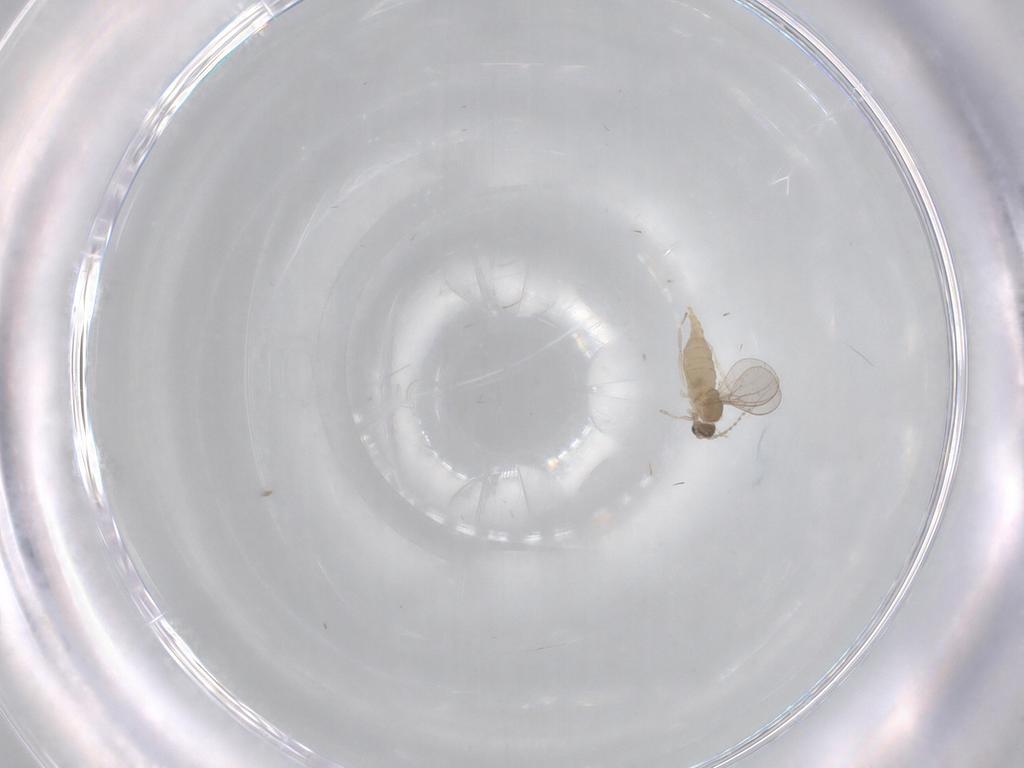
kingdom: Animalia
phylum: Arthropoda
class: Insecta
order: Diptera
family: Cecidomyiidae
